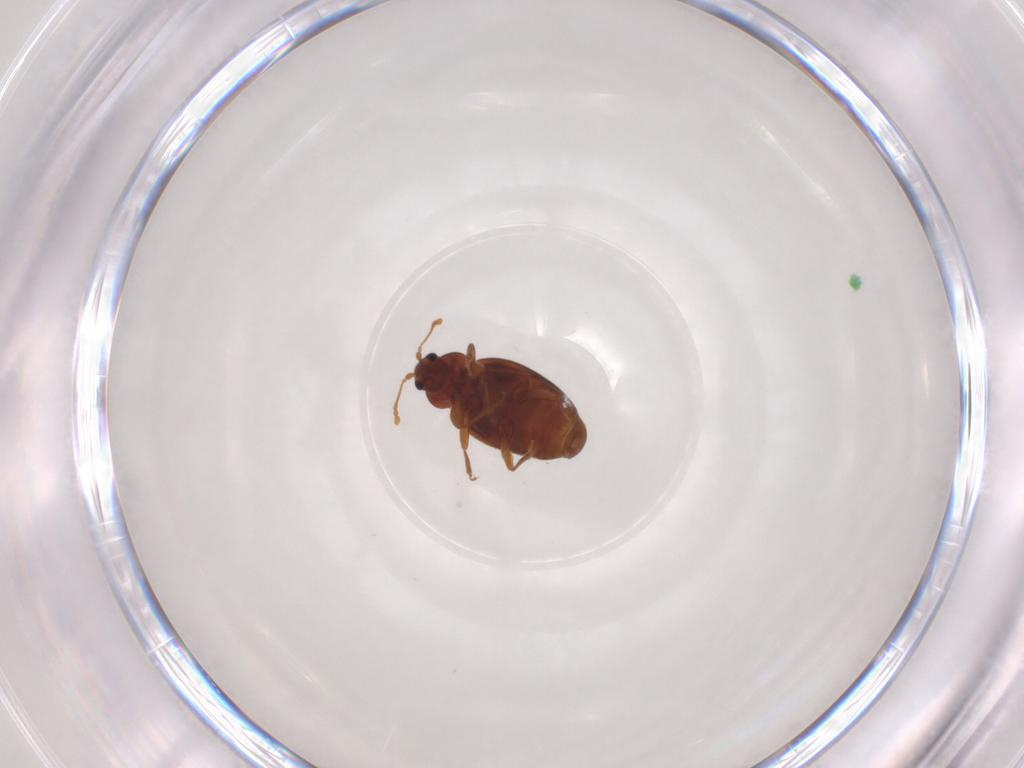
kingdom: Animalia
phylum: Arthropoda
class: Insecta
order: Coleoptera
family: Latridiidae
